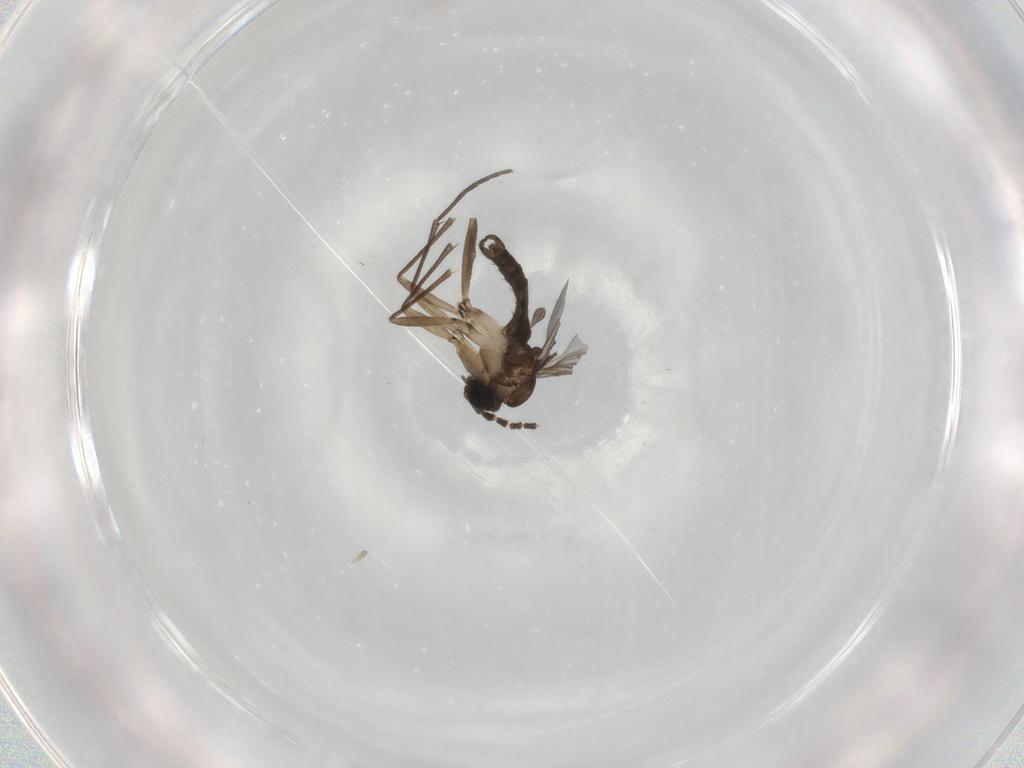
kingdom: Animalia
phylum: Arthropoda
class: Insecta
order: Diptera
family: Sciaridae
